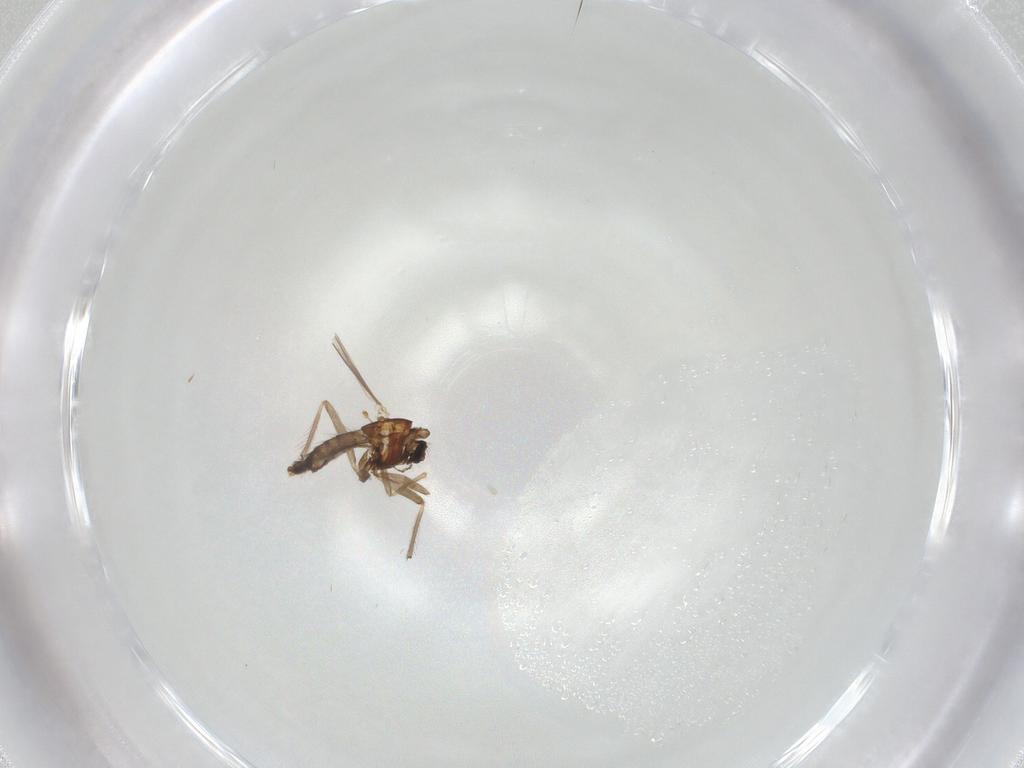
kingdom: Animalia
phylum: Arthropoda
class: Insecta
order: Diptera
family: Chironomidae
